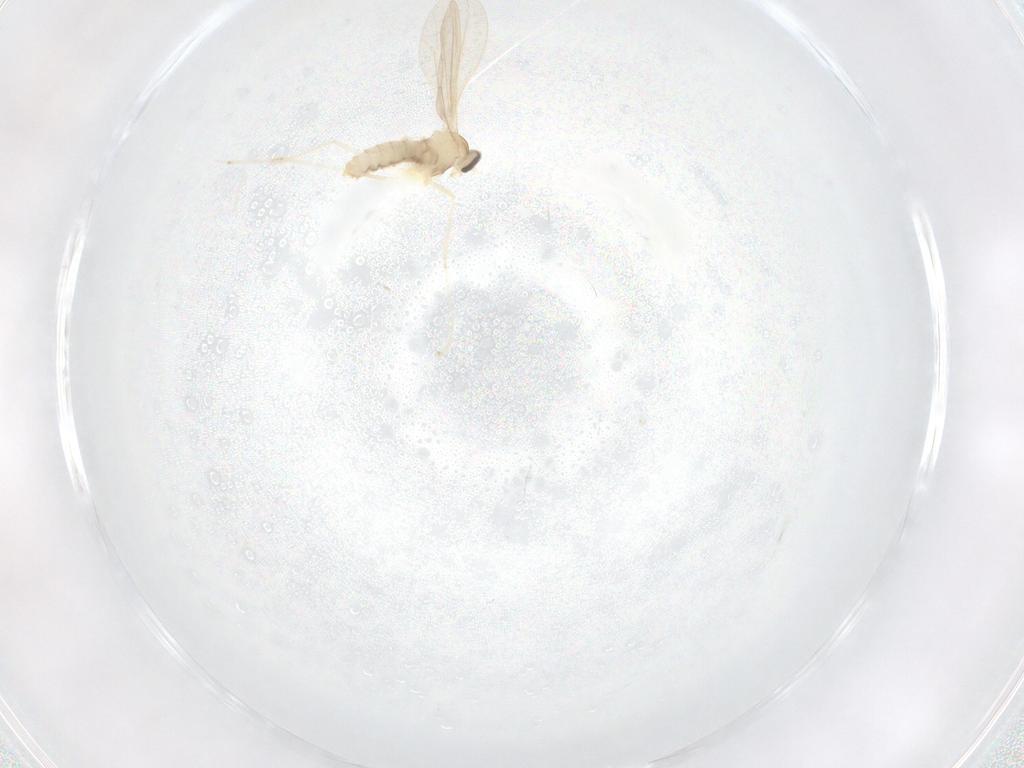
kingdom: Animalia
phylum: Arthropoda
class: Insecta
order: Diptera
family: Cecidomyiidae
